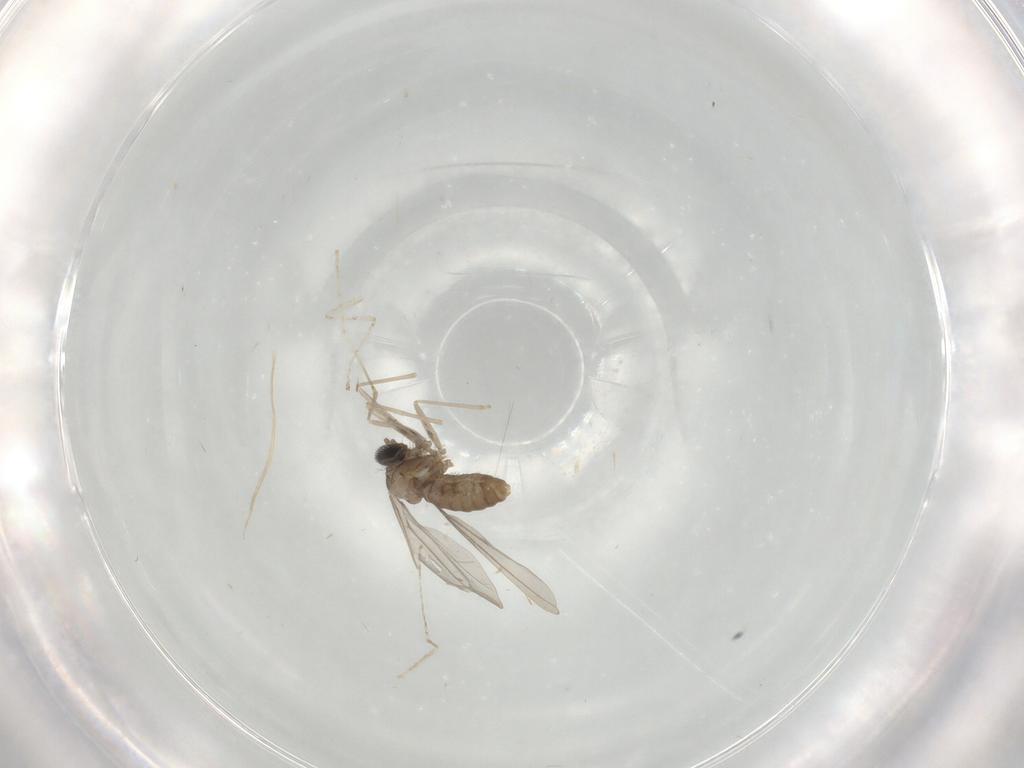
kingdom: Animalia
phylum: Arthropoda
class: Insecta
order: Diptera
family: Cecidomyiidae
